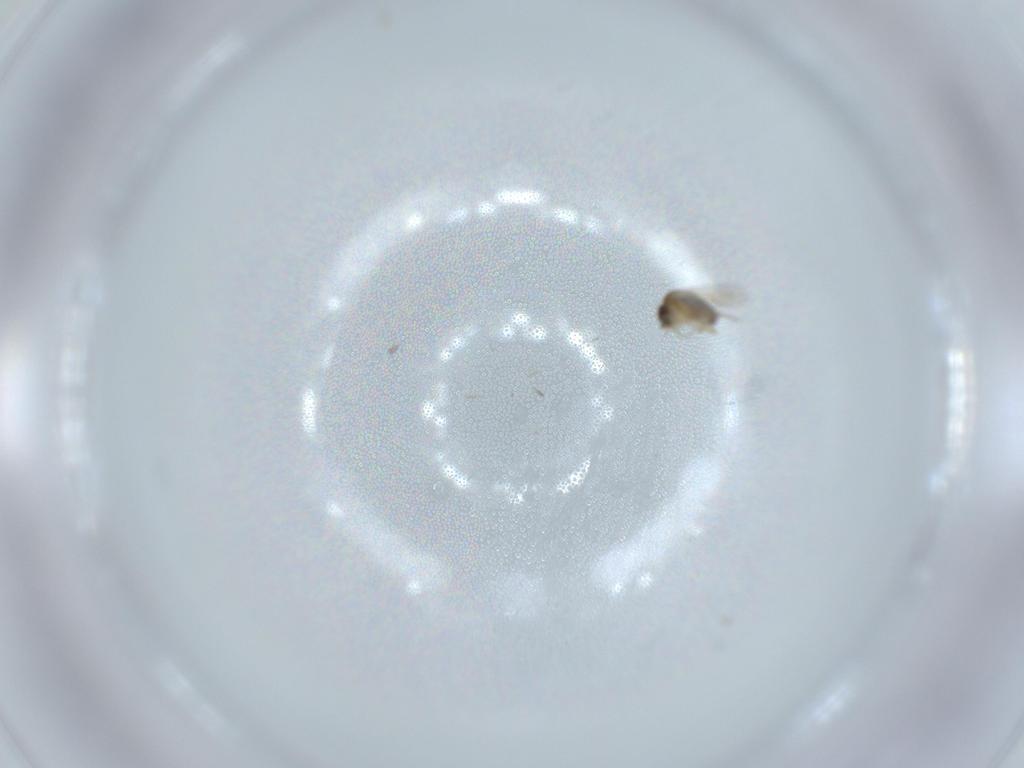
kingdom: Animalia
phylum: Arthropoda
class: Insecta
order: Diptera
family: Phoridae
